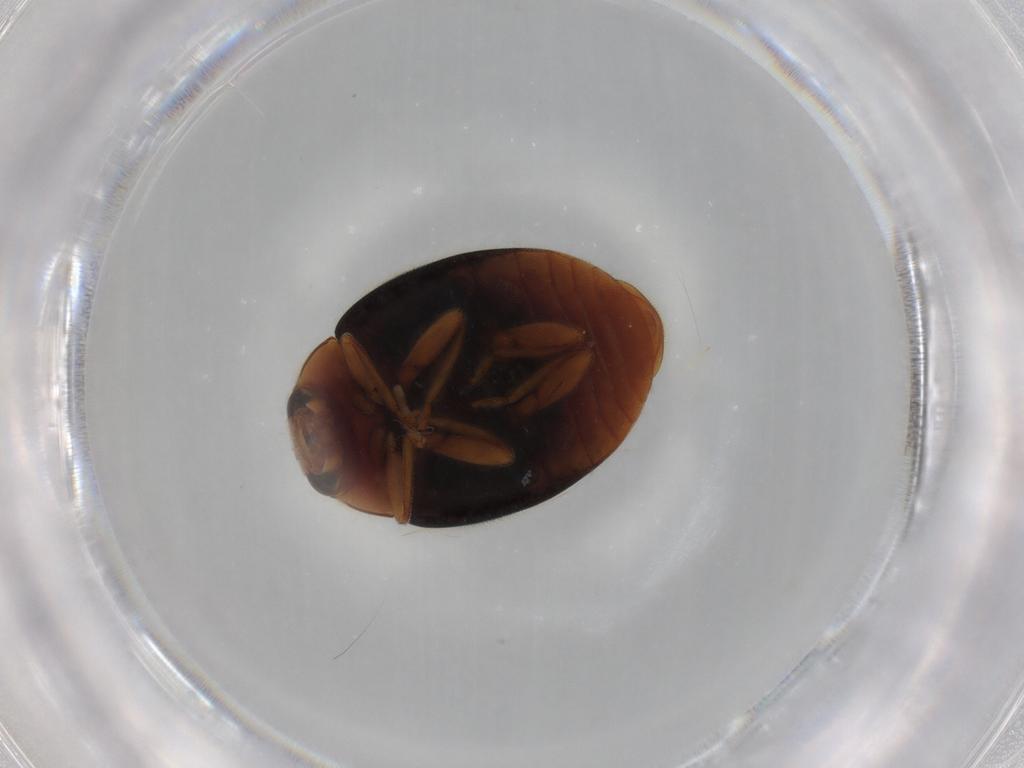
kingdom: Animalia
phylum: Arthropoda
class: Insecta
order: Coleoptera
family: Coccinellidae
